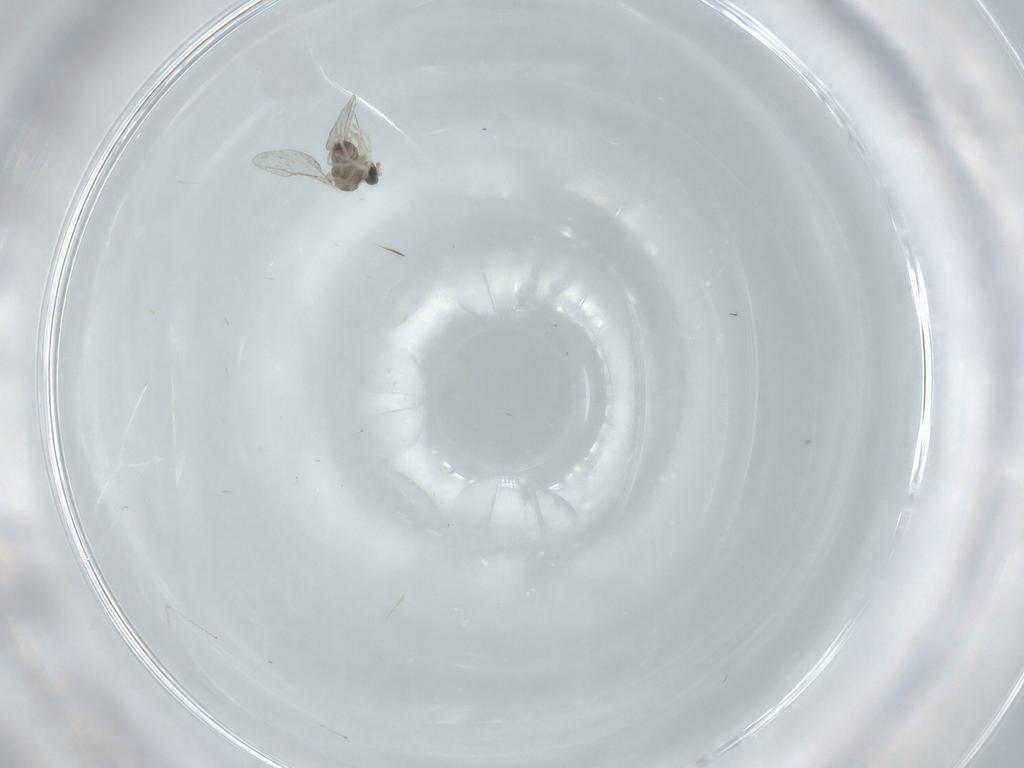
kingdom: Animalia
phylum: Arthropoda
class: Insecta
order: Diptera
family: Cecidomyiidae
